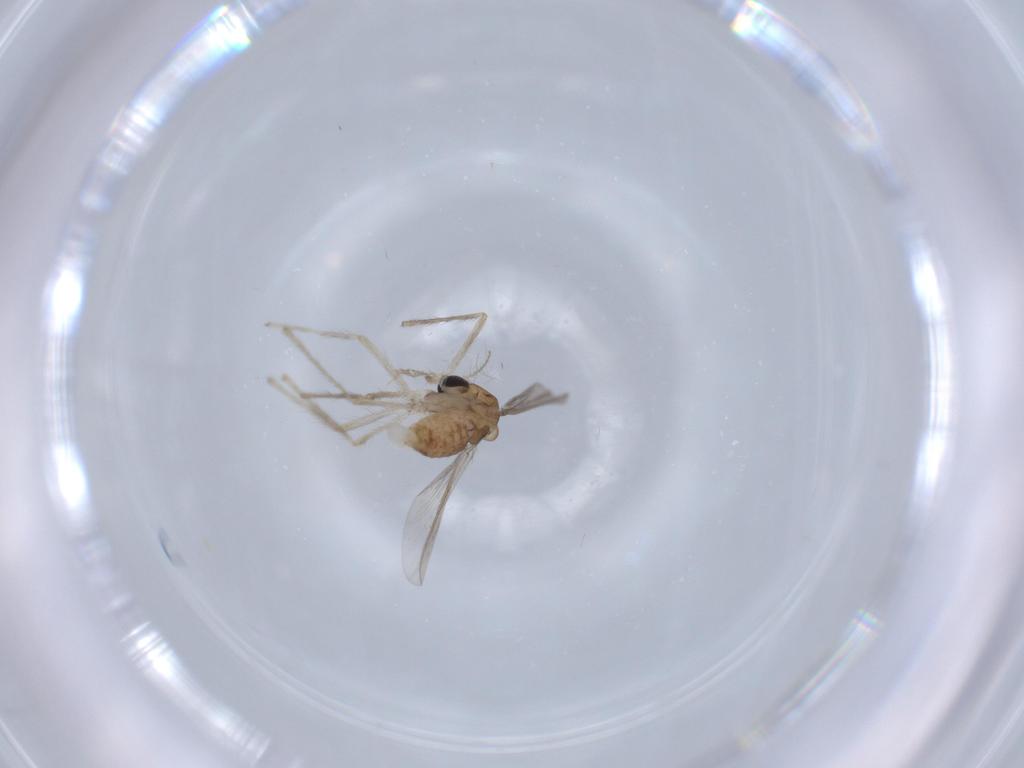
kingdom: Animalia
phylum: Arthropoda
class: Insecta
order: Diptera
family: Chironomidae
